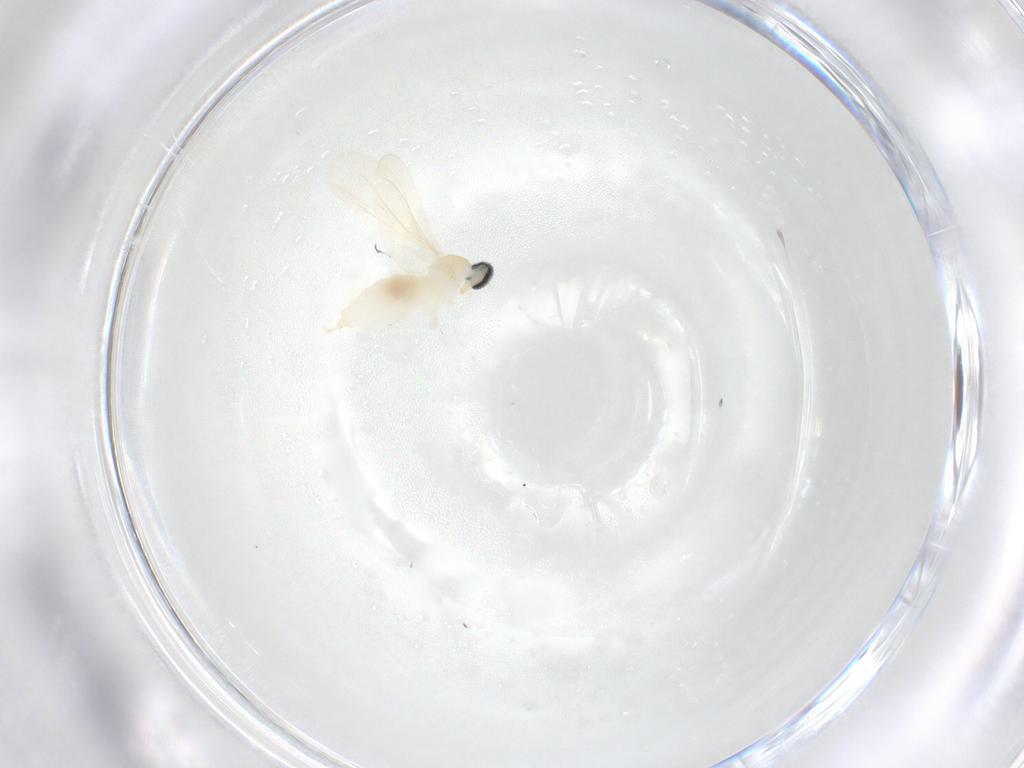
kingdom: Animalia
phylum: Arthropoda
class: Insecta
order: Diptera
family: Cecidomyiidae
